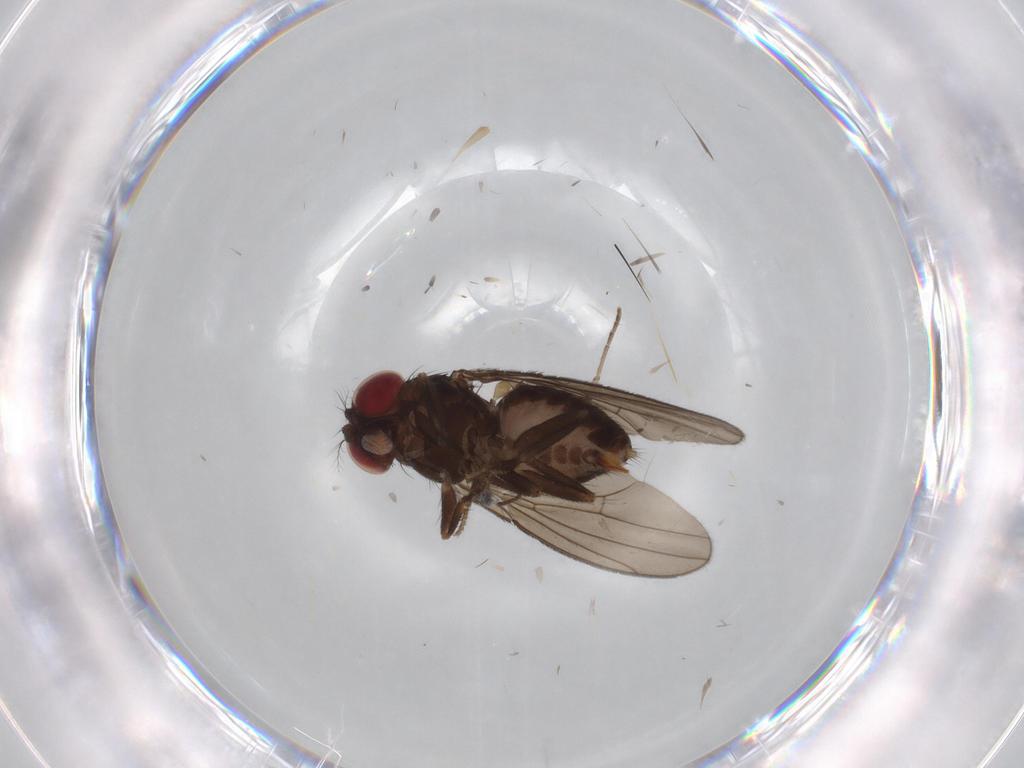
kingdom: Animalia
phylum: Arthropoda
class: Insecta
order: Diptera
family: Drosophilidae
